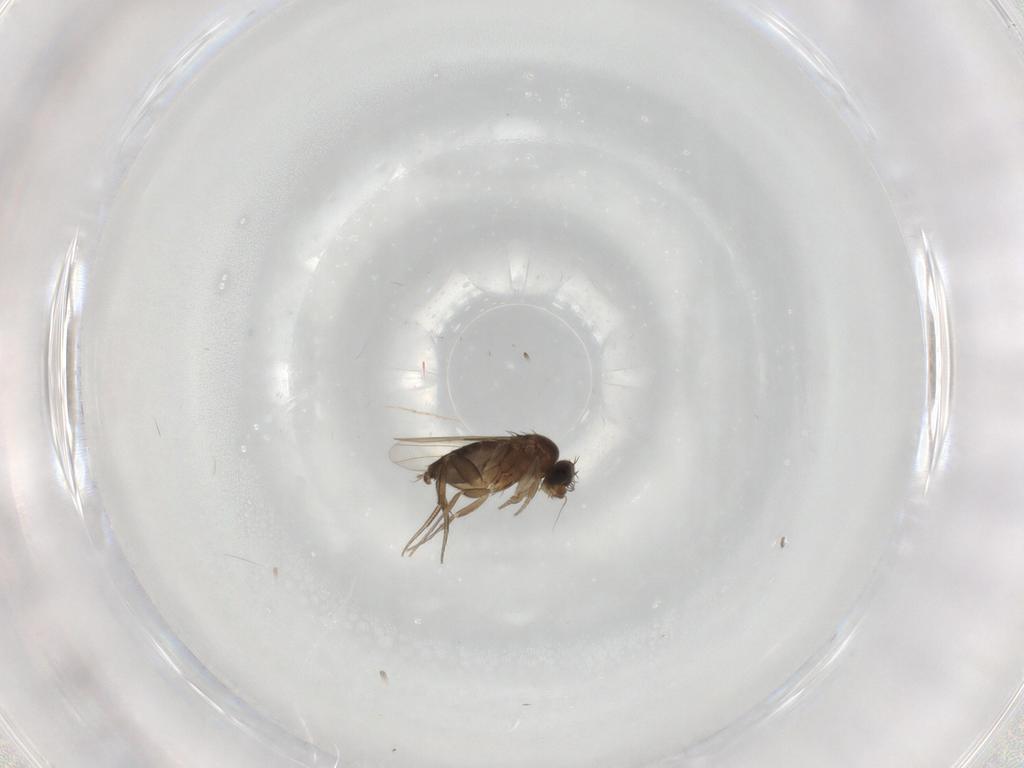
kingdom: Animalia
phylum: Arthropoda
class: Insecta
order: Diptera
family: Phoridae
